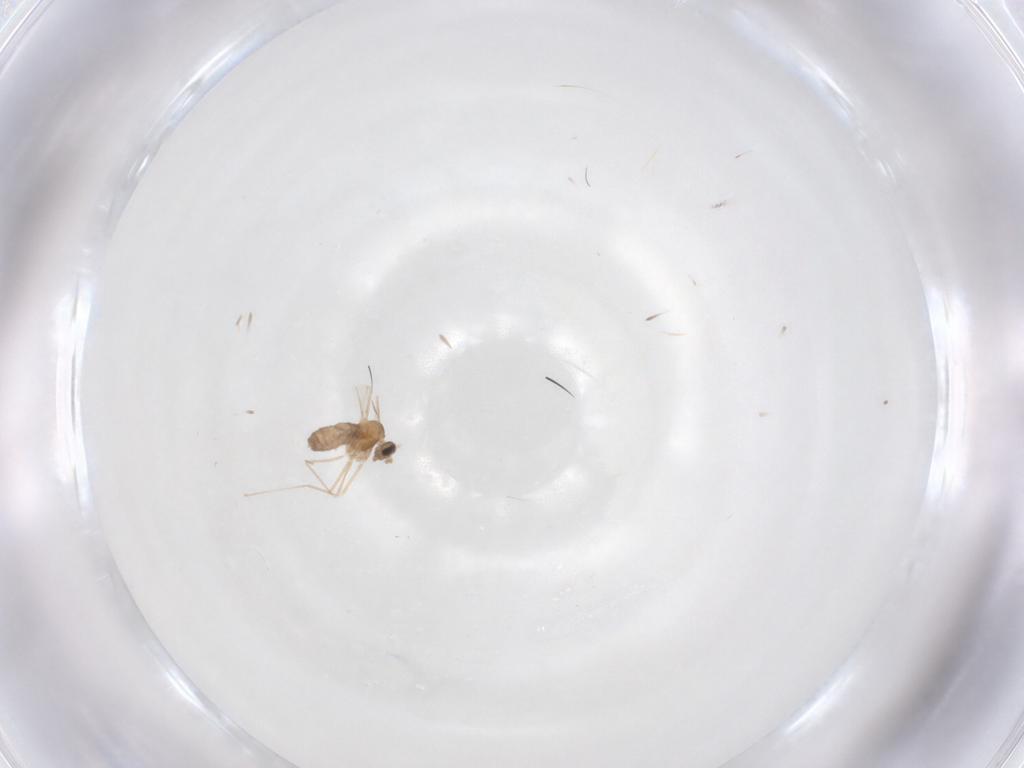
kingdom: Animalia
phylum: Arthropoda
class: Insecta
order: Diptera
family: Cecidomyiidae
